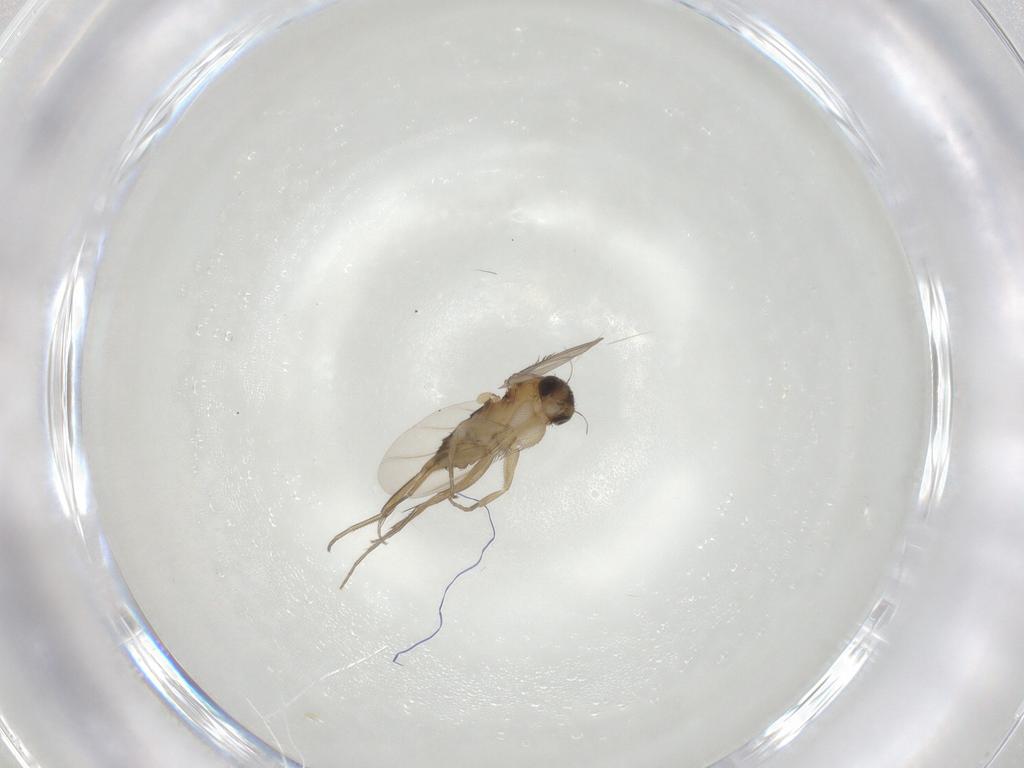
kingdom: Animalia
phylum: Arthropoda
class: Insecta
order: Diptera
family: Phoridae
